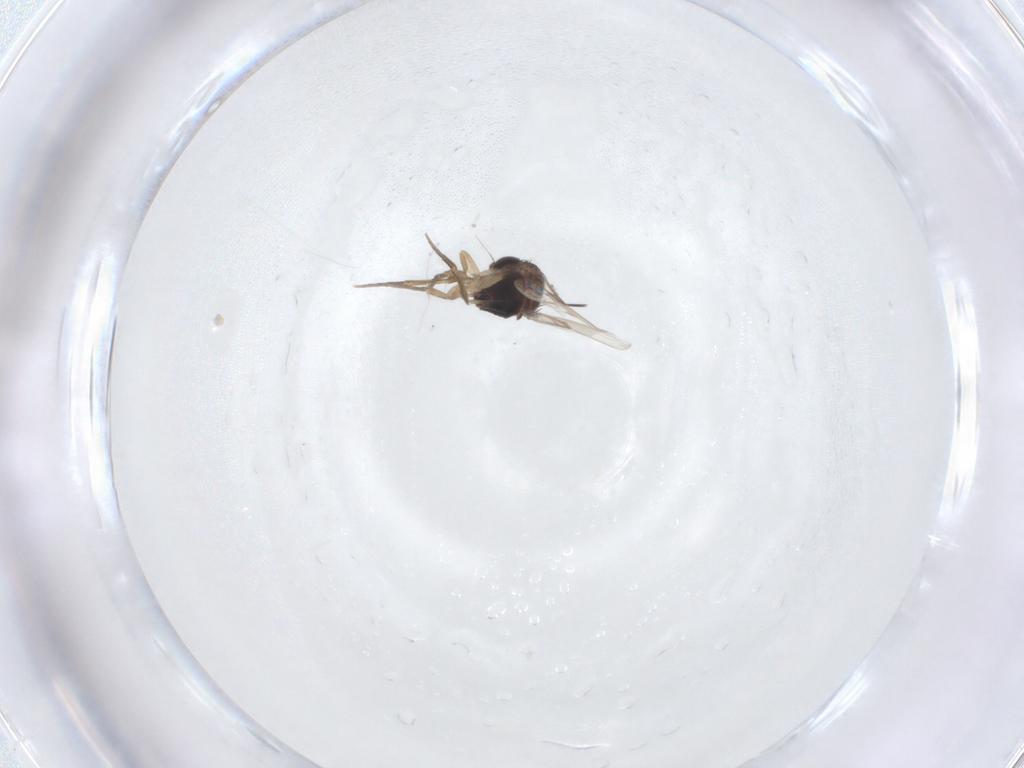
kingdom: Animalia
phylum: Arthropoda
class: Insecta
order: Diptera
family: Phoridae
